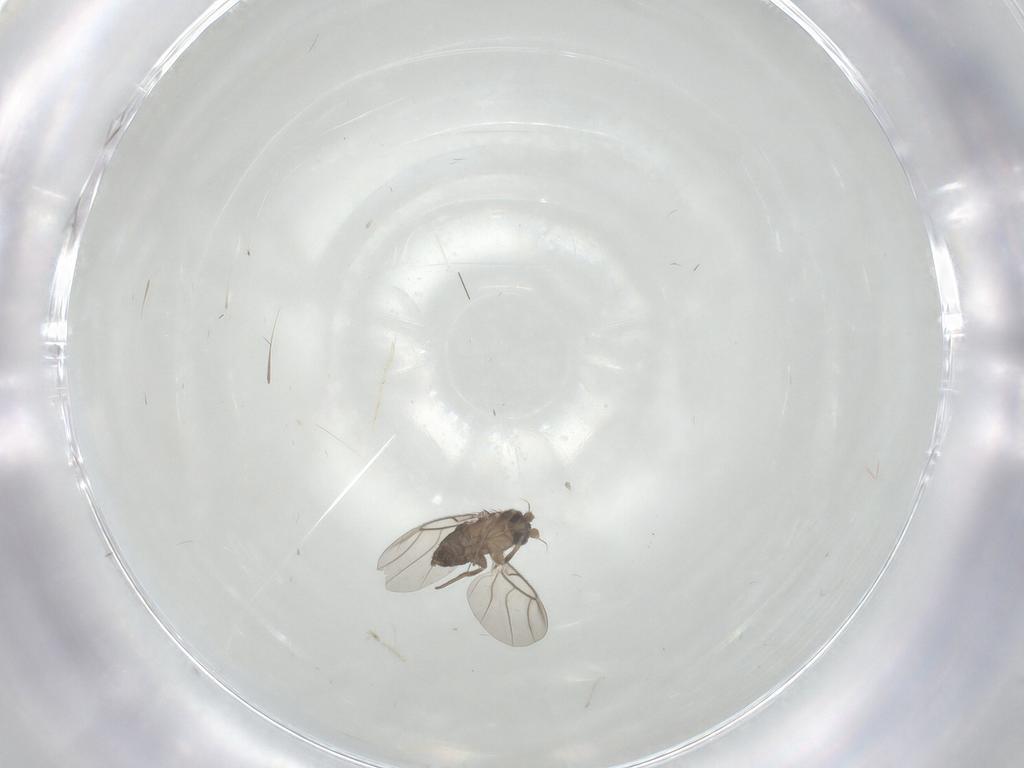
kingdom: Animalia
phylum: Arthropoda
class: Insecta
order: Diptera
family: Phoridae
